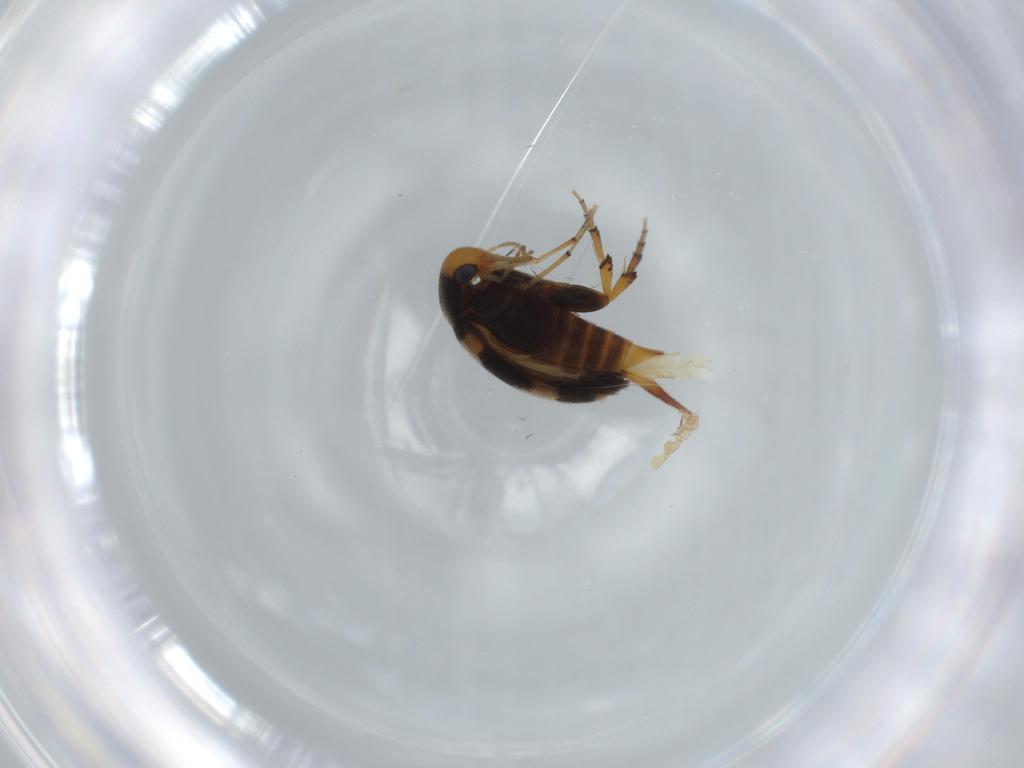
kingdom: Animalia
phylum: Arthropoda
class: Insecta
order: Coleoptera
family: Mordellidae
